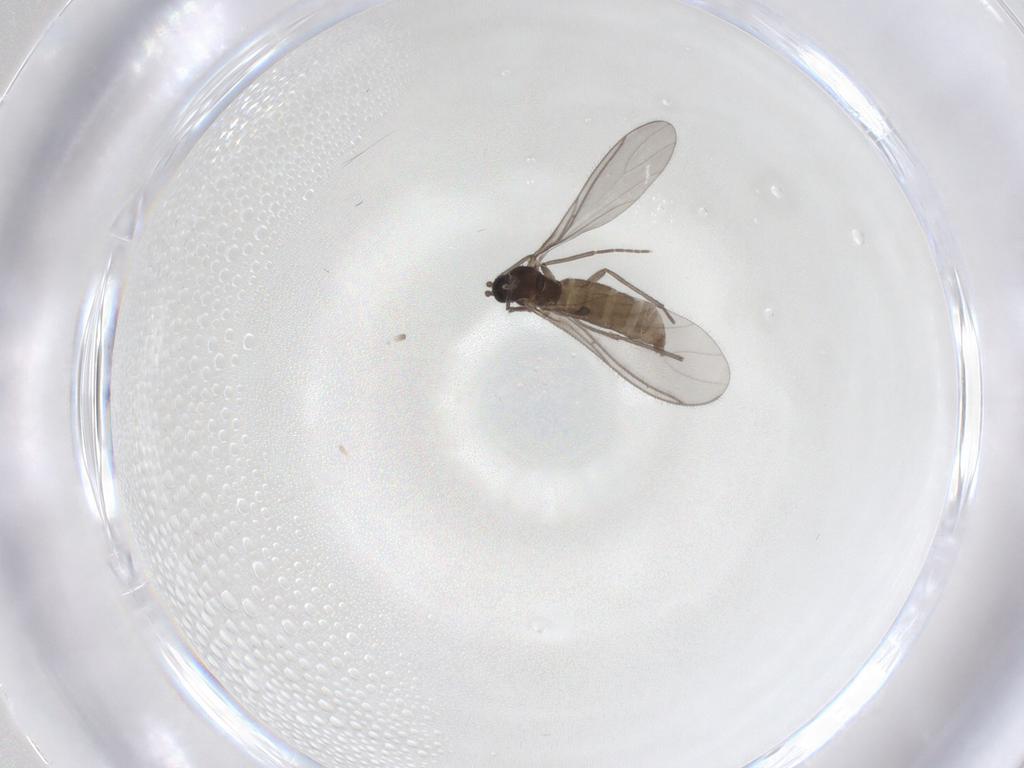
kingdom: Animalia
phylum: Arthropoda
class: Insecta
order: Diptera
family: Sciaridae
